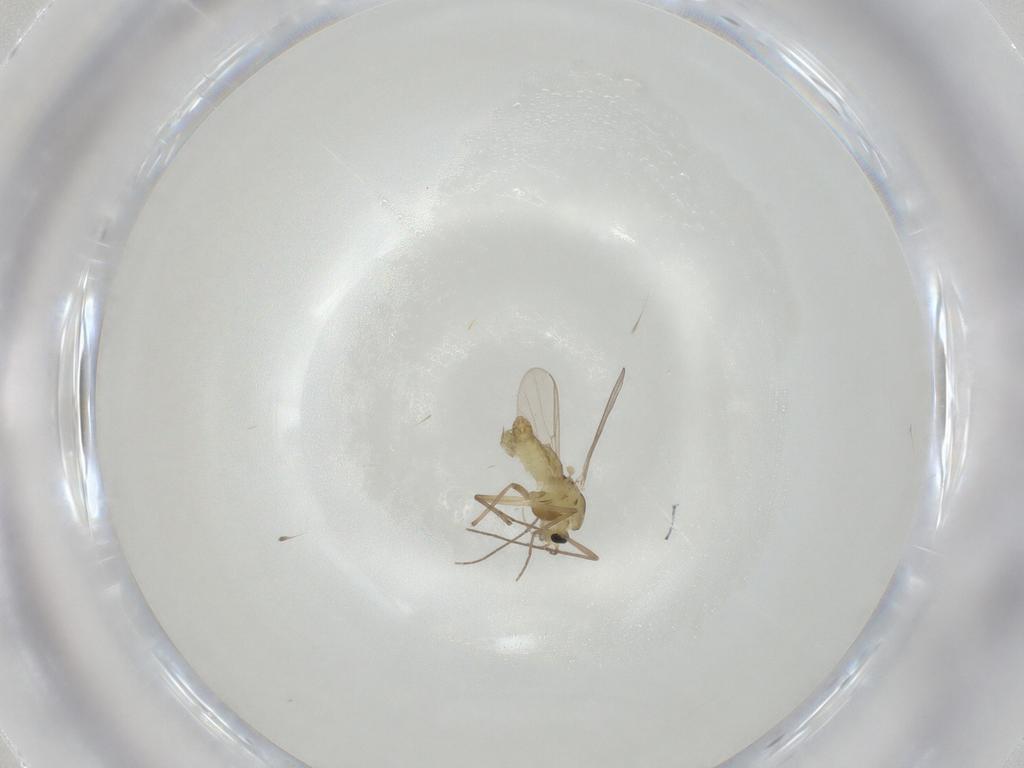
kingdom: Animalia
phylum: Arthropoda
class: Insecta
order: Diptera
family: Chironomidae
